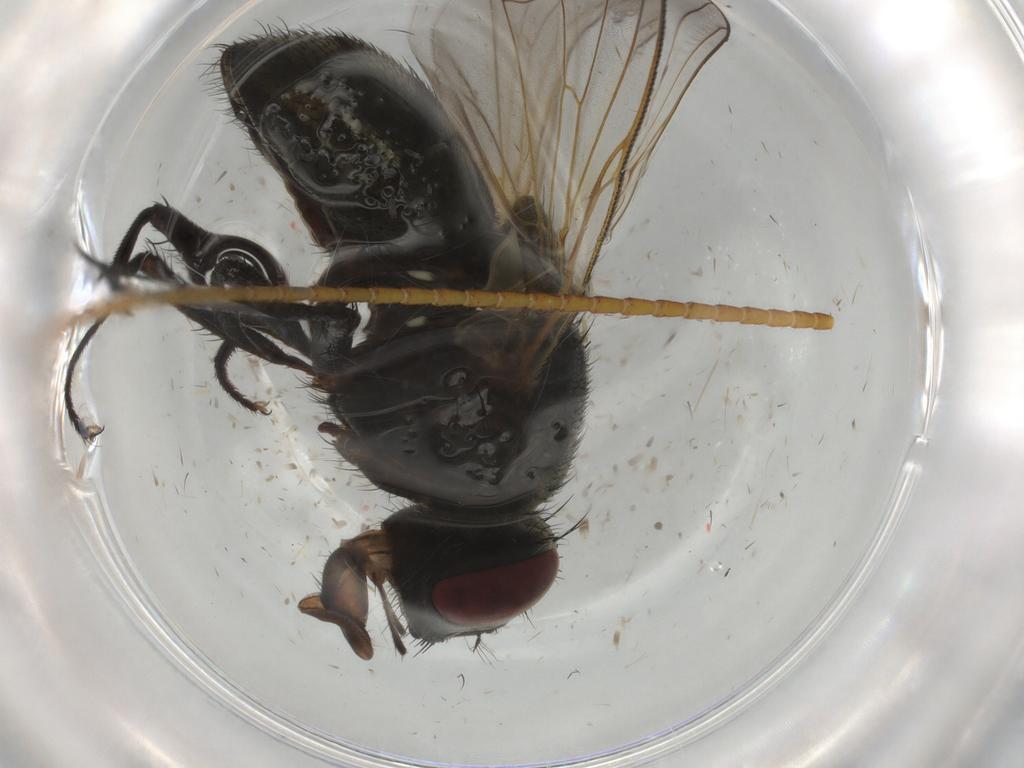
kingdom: Animalia
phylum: Arthropoda
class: Insecta
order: Diptera
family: Muscidae
